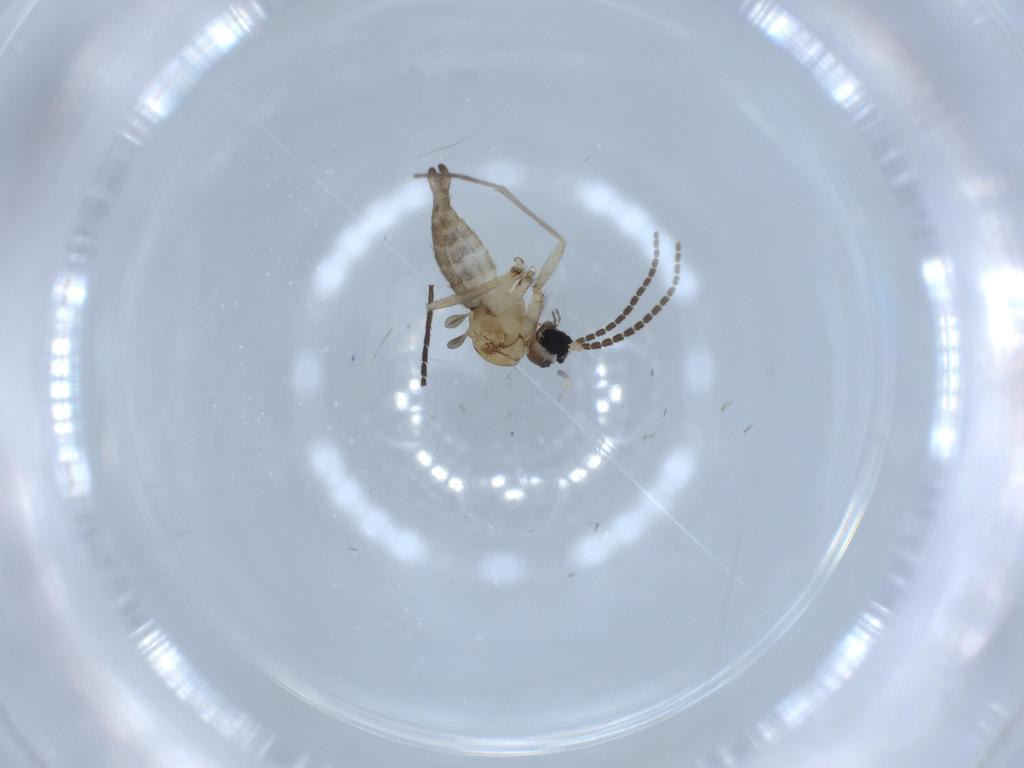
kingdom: Animalia
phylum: Arthropoda
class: Insecta
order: Diptera
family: Sciaridae
